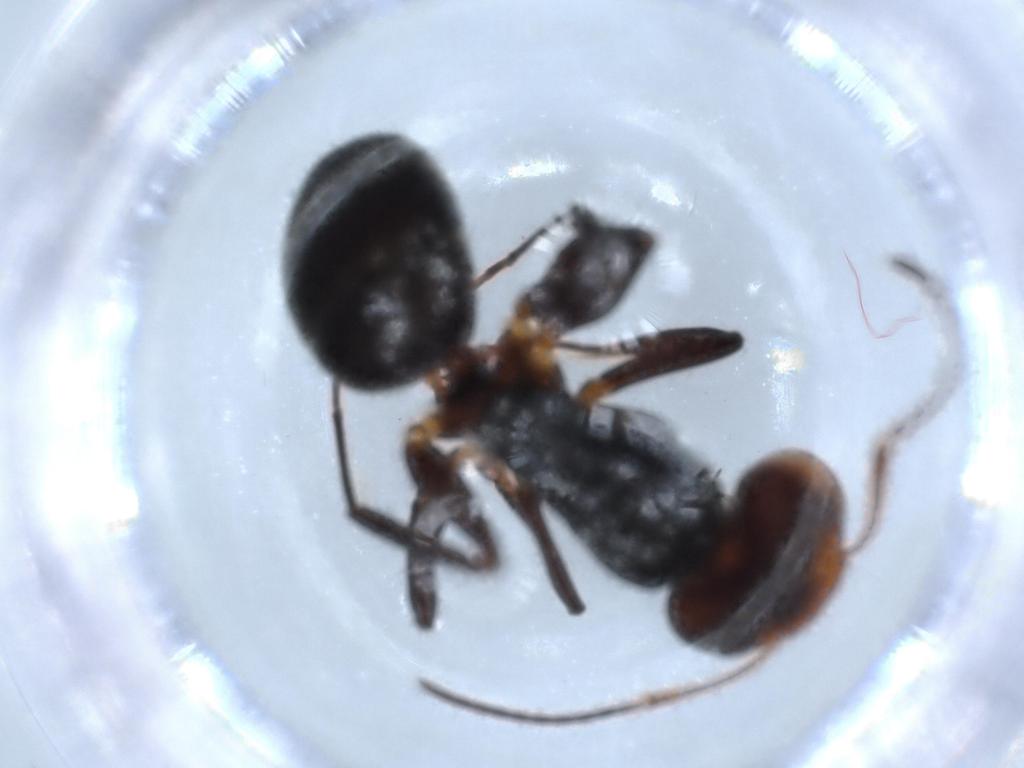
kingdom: Animalia
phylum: Arthropoda
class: Insecta
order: Hymenoptera
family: Formicidae
